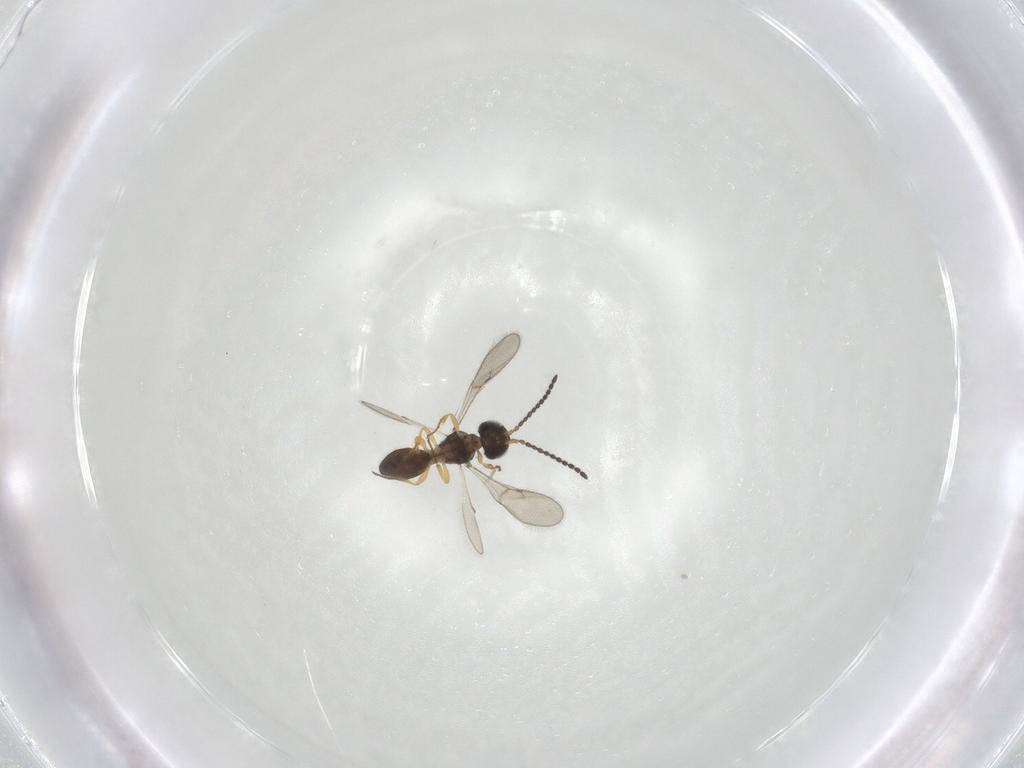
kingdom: Animalia
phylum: Arthropoda
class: Insecta
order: Hymenoptera
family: Scelionidae
